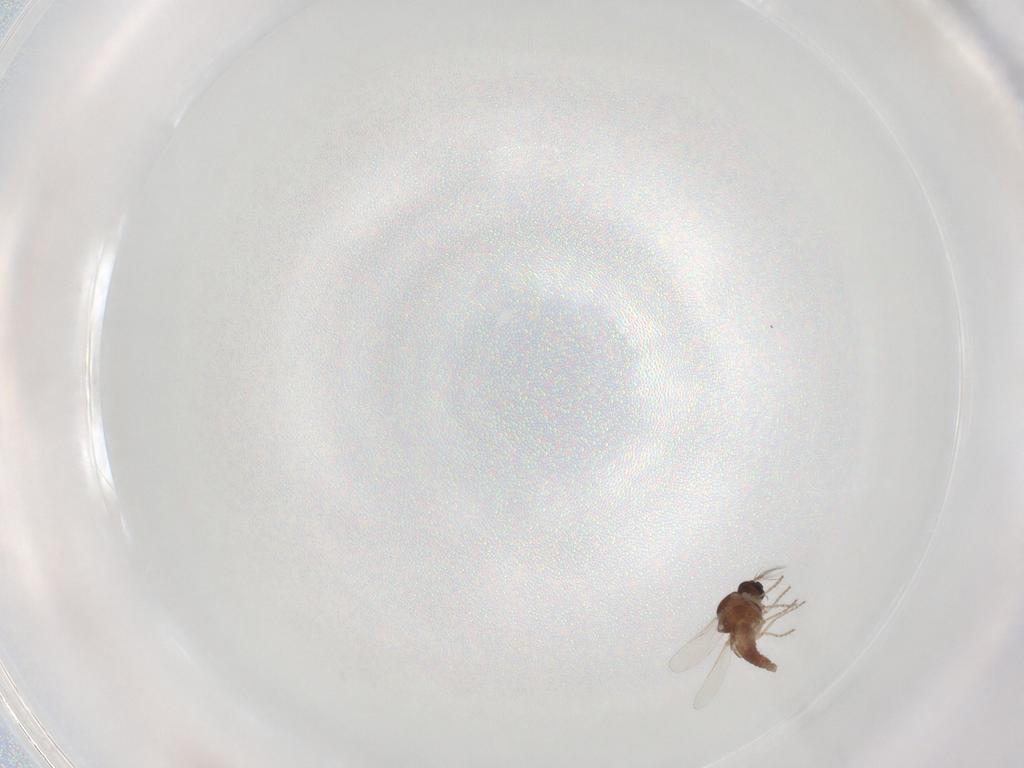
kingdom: Animalia
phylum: Arthropoda
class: Insecta
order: Diptera
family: Ceratopogonidae
